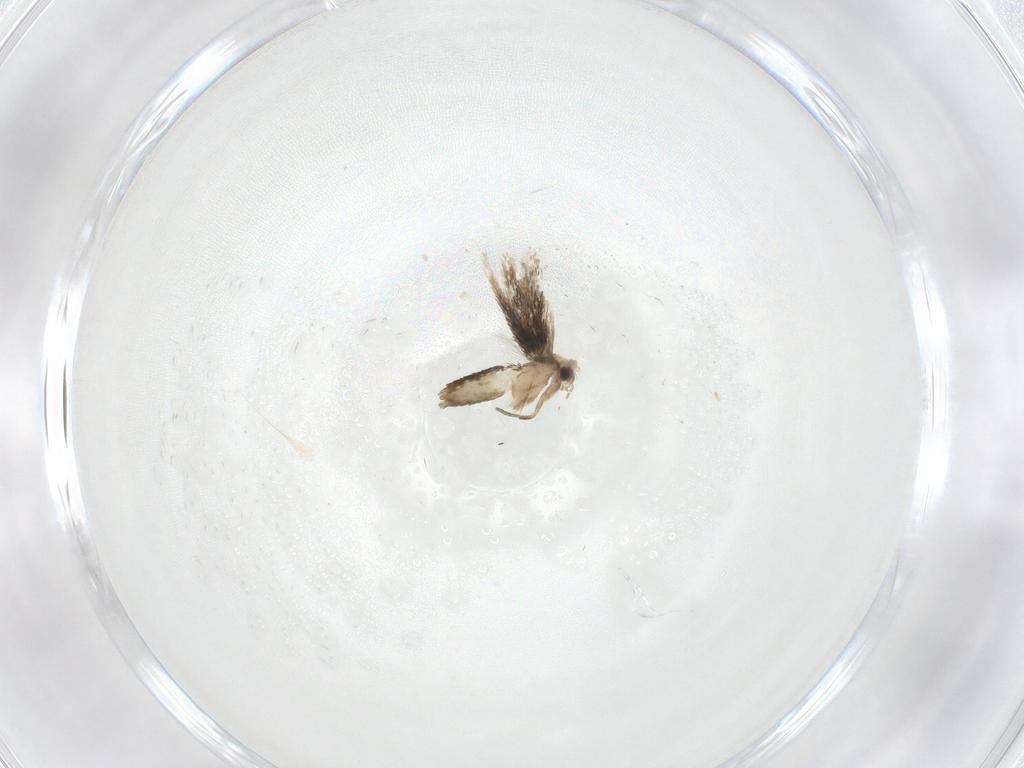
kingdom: Animalia
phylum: Arthropoda
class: Insecta
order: Lepidoptera
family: Nepticulidae
